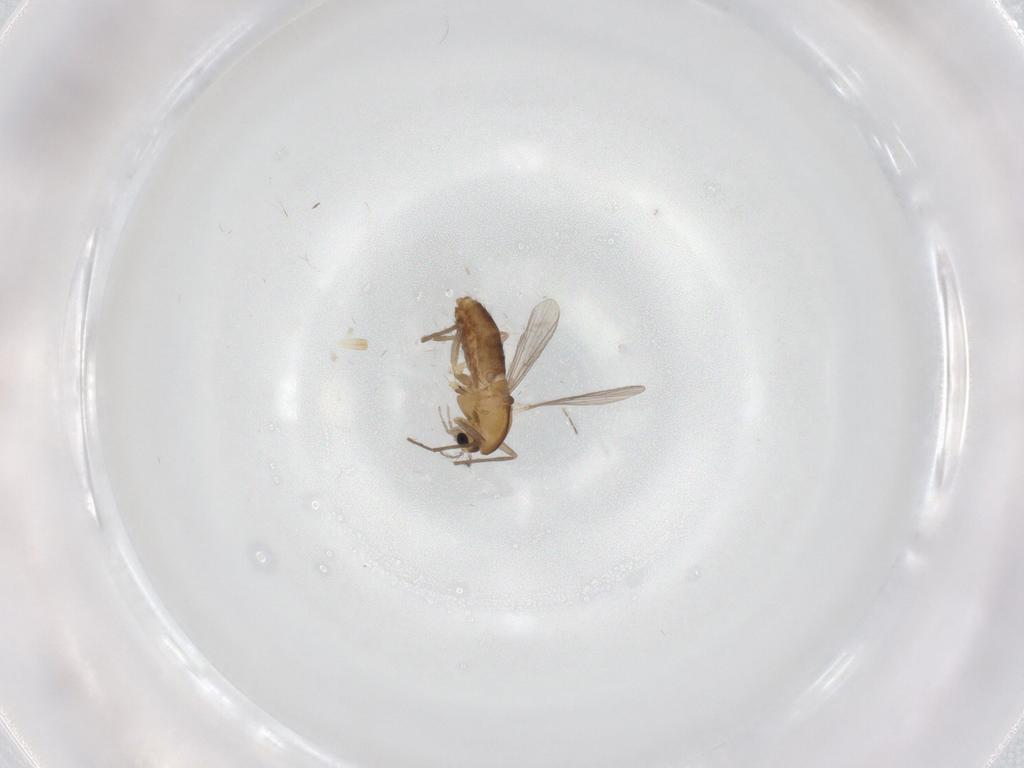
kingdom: Animalia
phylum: Arthropoda
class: Insecta
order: Diptera
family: Chironomidae
